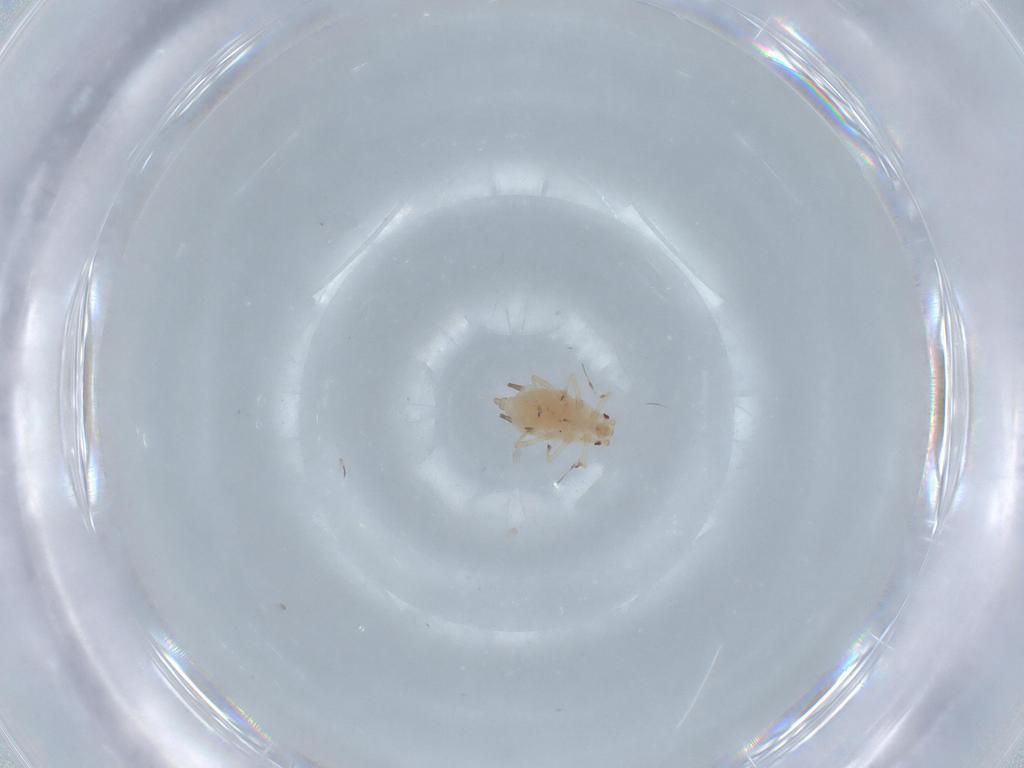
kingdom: Animalia
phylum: Arthropoda
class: Insecta
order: Hemiptera
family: Aphididae
